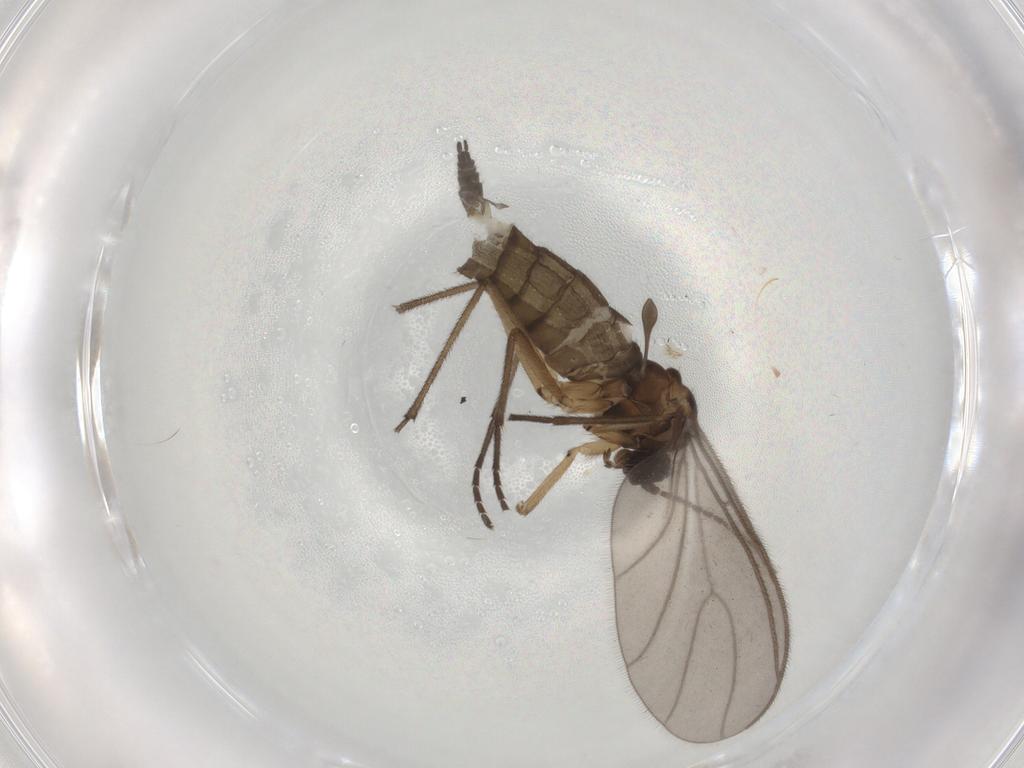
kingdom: Animalia
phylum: Arthropoda
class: Insecta
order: Diptera
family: Sciaridae
